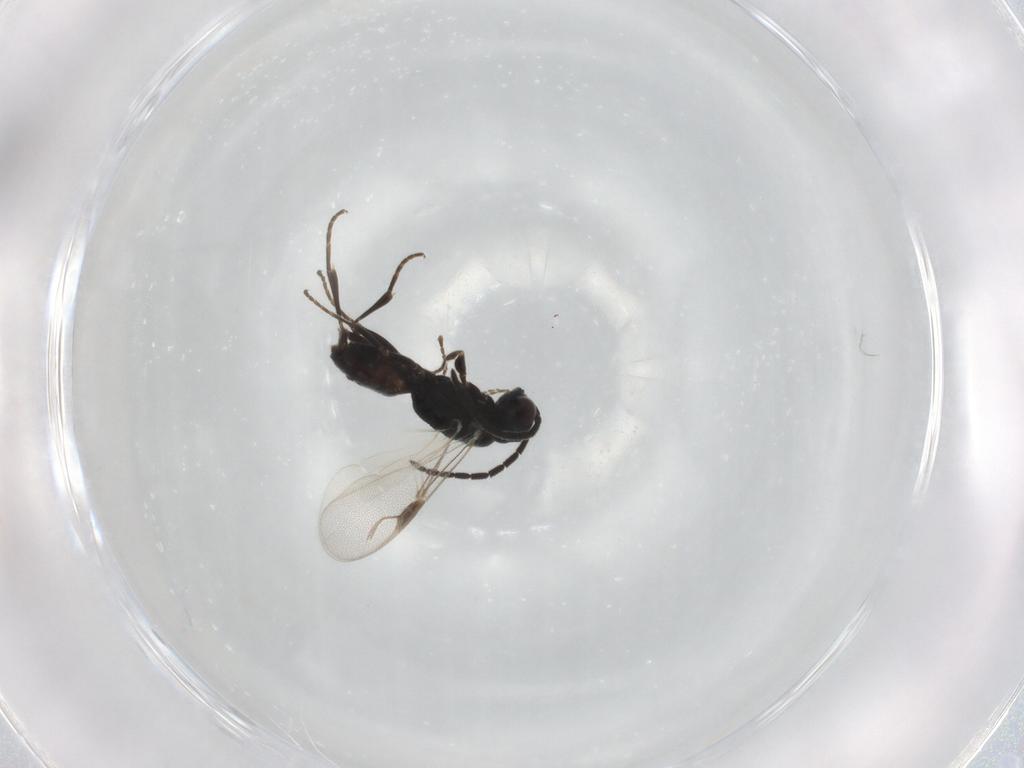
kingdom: Animalia
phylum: Arthropoda
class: Insecta
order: Hymenoptera
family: Dryinidae
